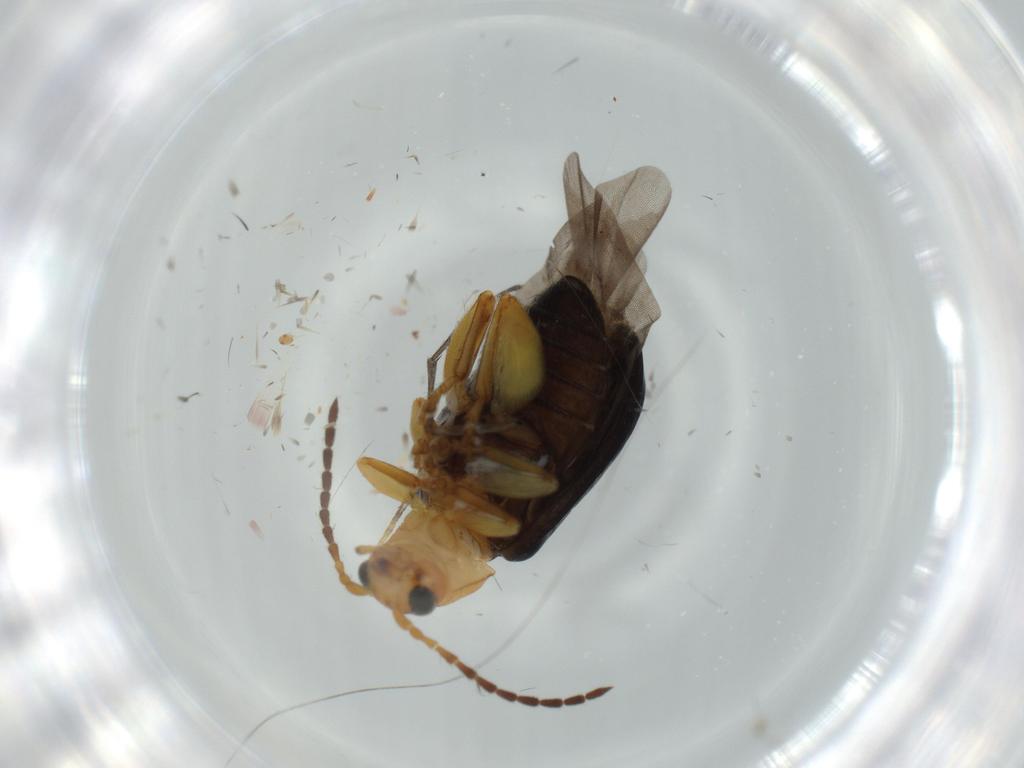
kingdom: Animalia
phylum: Arthropoda
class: Insecta
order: Coleoptera
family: Chrysomelidae
